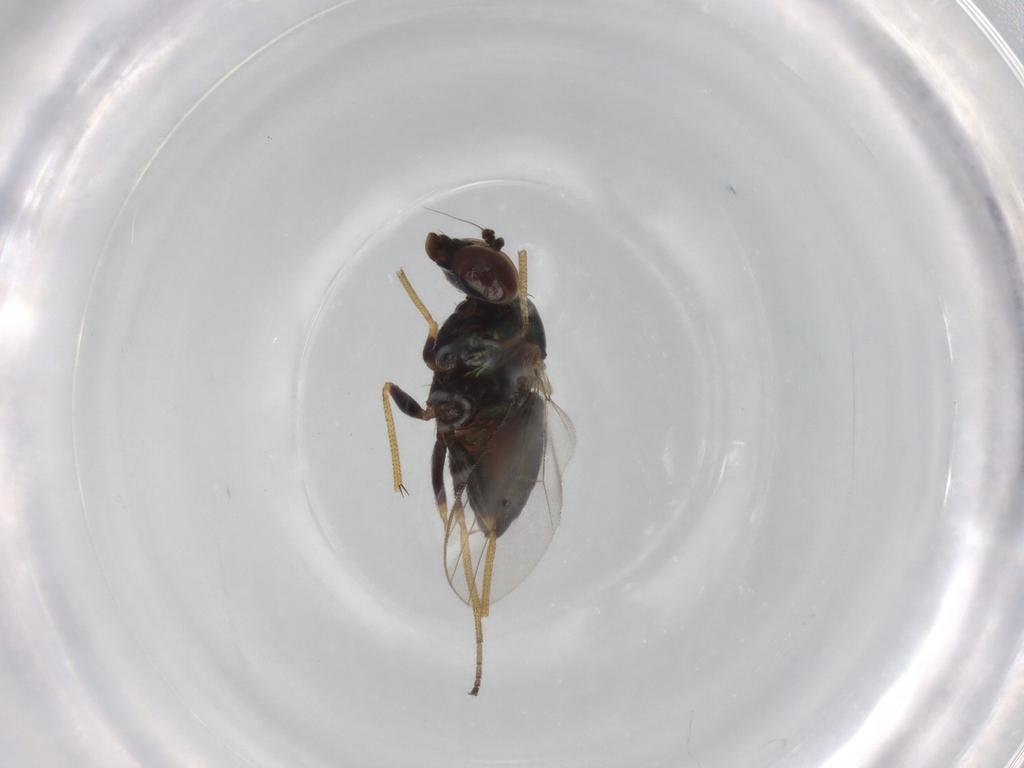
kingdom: Animalia
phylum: Arthropoda
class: Insecta
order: Diptera
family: Dolichopodidae
